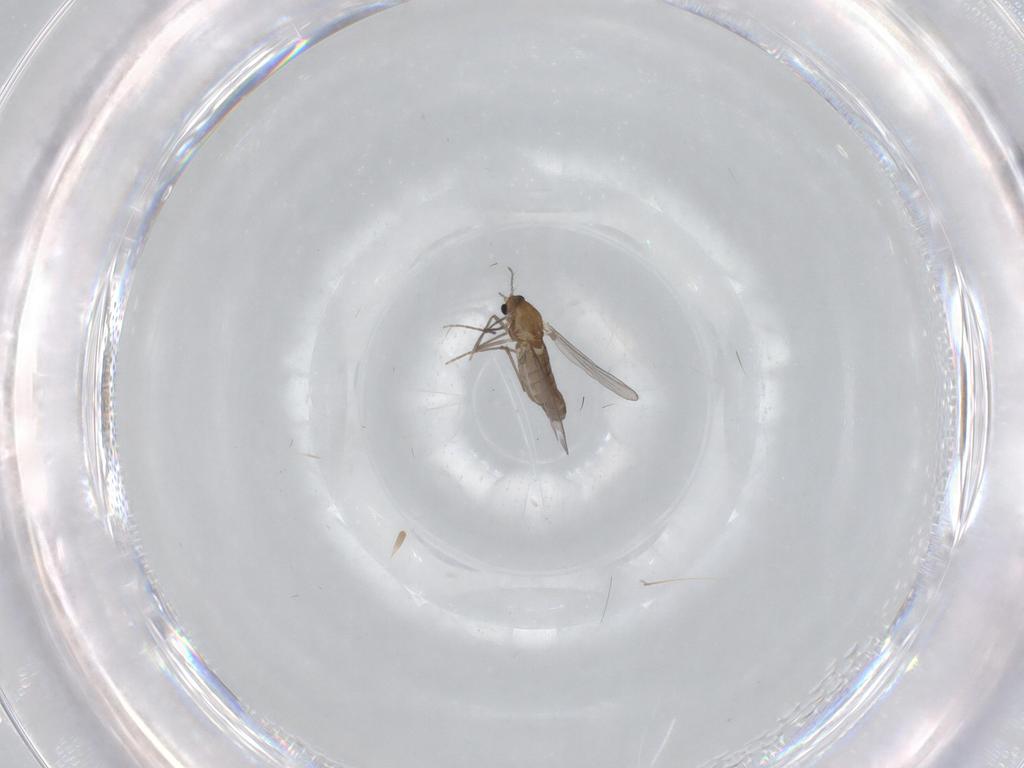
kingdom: Animalia
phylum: Arthropoda
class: Insecta
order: Diptera
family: Chironomidae
